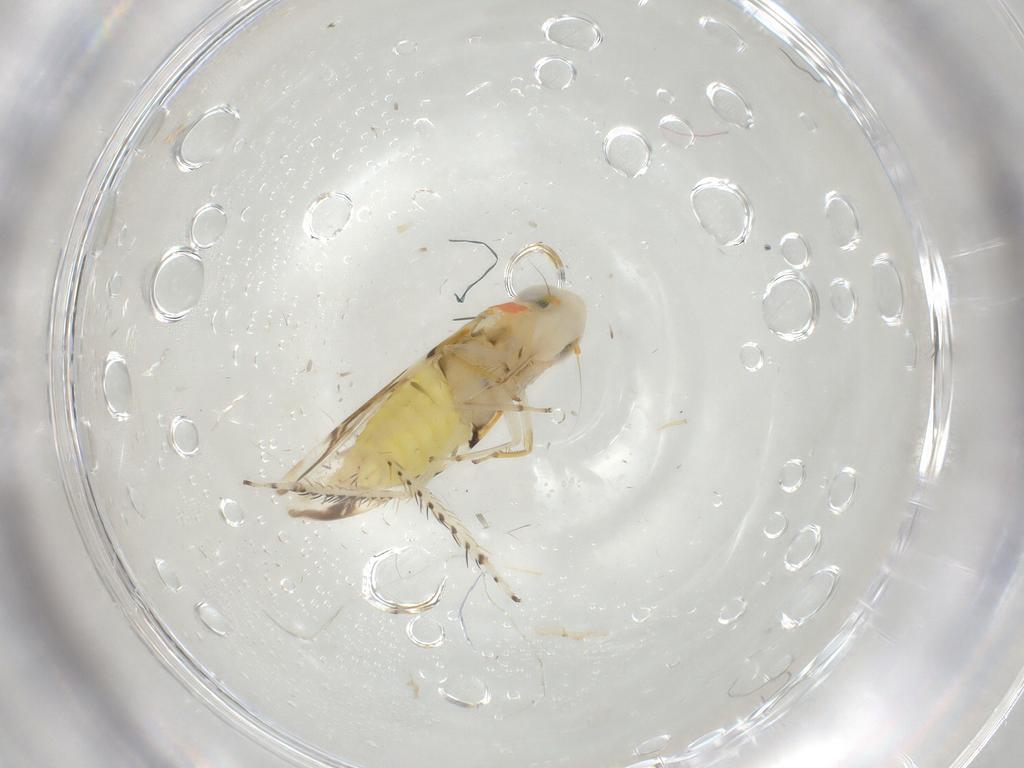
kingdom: Animalia
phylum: Arthropoda
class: Insecta
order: Hemiptera
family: Cicadellidae
